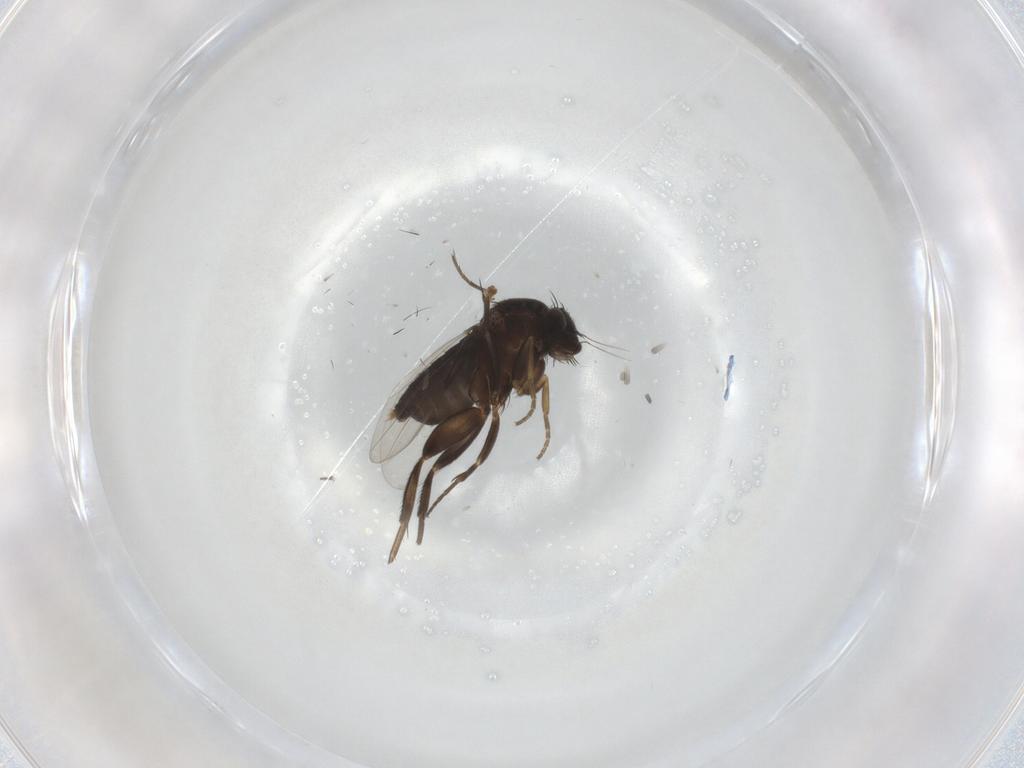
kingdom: Animalia
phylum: Arthropoda
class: Insecta
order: Diptera
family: Phoridae
